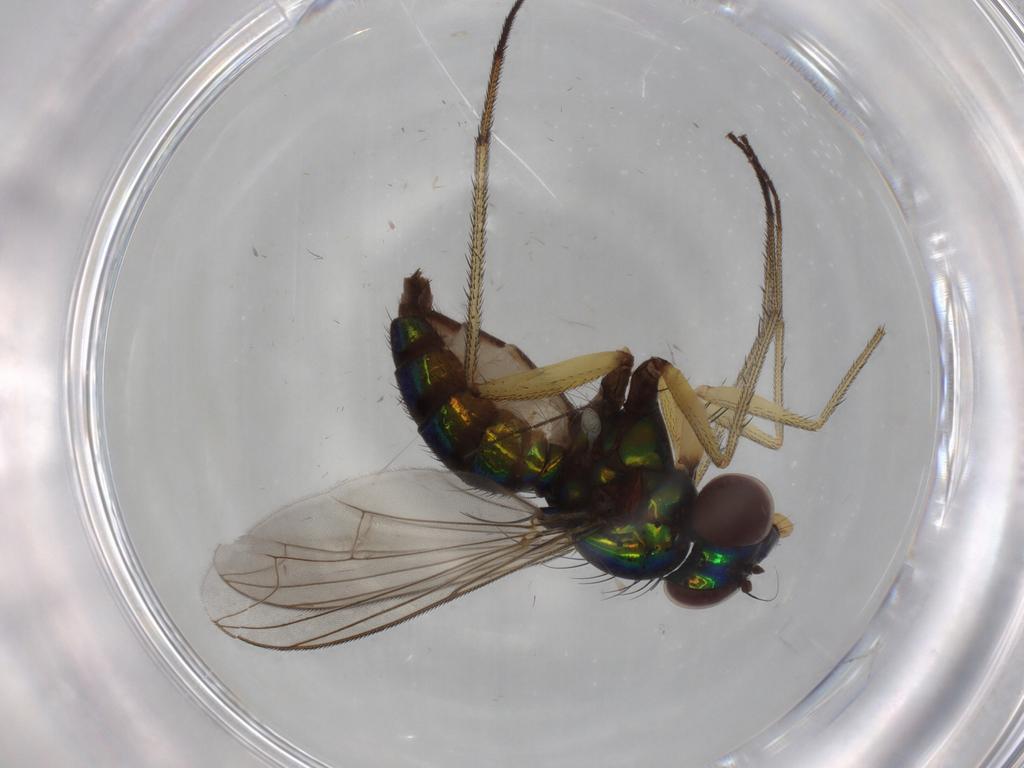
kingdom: Animalia
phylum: Arthropoda
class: Insecta
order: Diptera
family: Dolichopodidae
